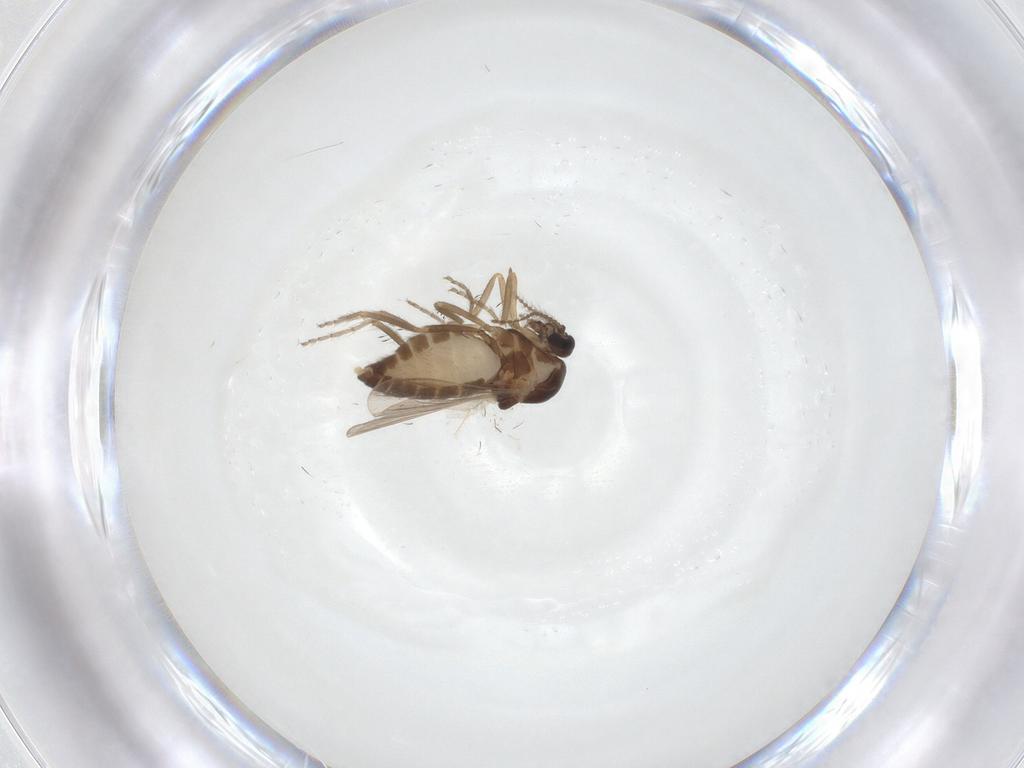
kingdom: Animalia
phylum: Arthropoda
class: Insecta
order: Diptera
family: Ceratopogonidae
